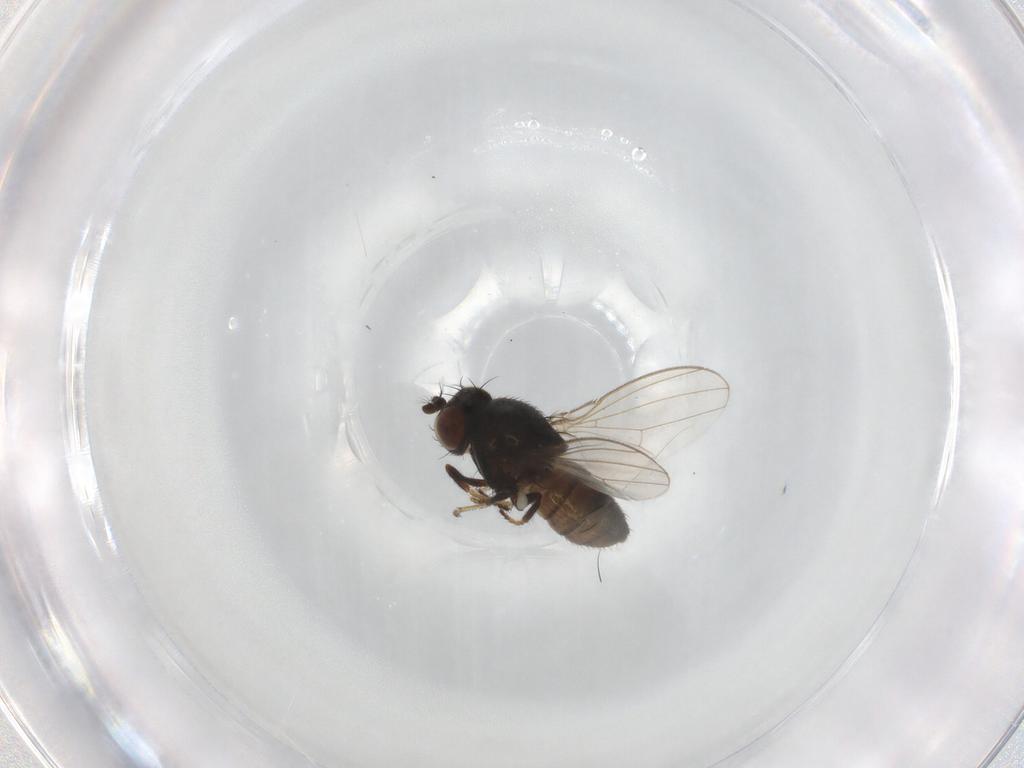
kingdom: Animalia
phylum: Arthropoda
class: Insecta
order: Diptera
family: Ephydridae
